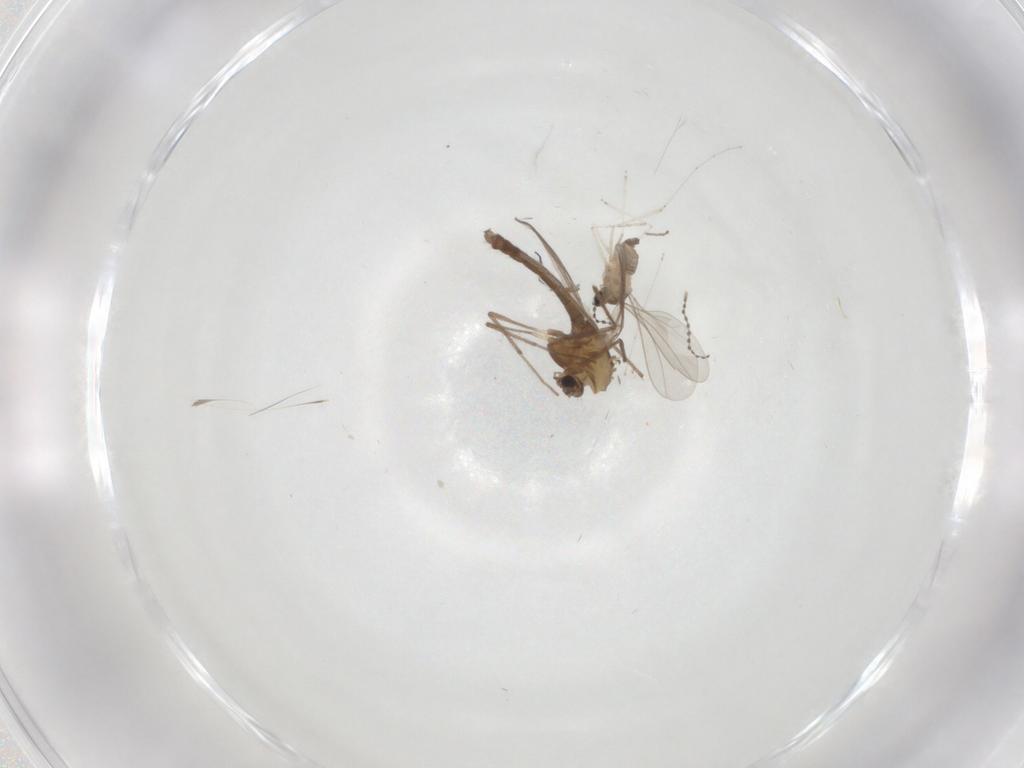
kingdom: Animalia
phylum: Arthropoda
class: Insecta
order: Diptera
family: Chironomidae
